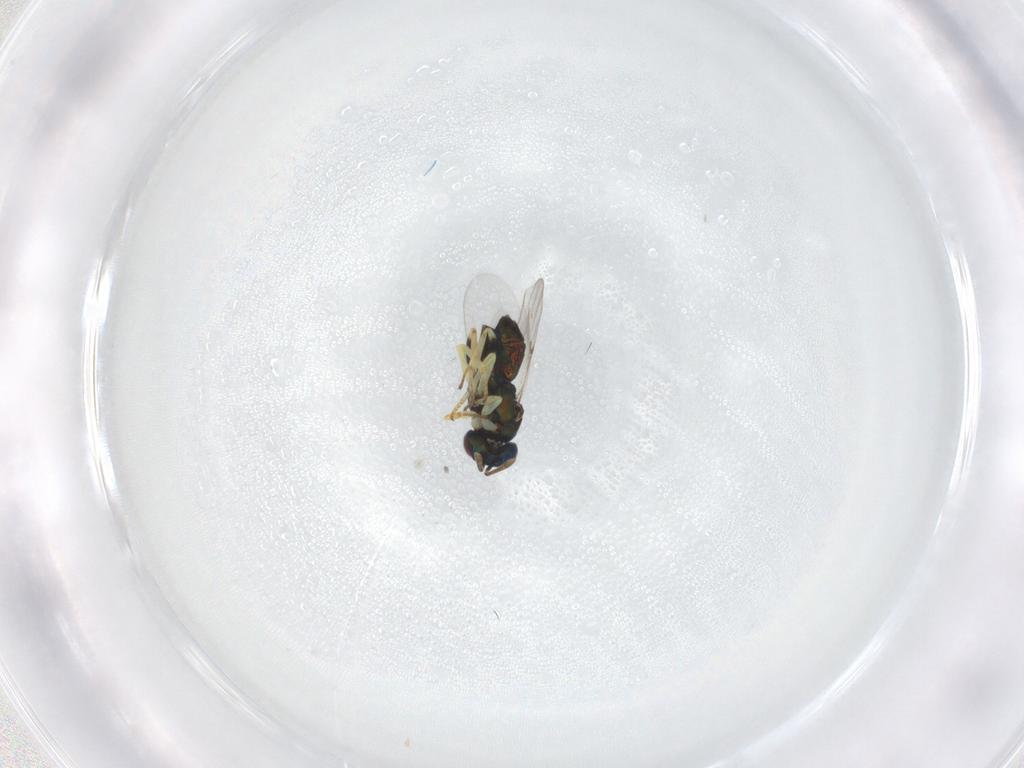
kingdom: Animalia
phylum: Arthropoda
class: Insecta
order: Hymenoptera
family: Encyrtidae
